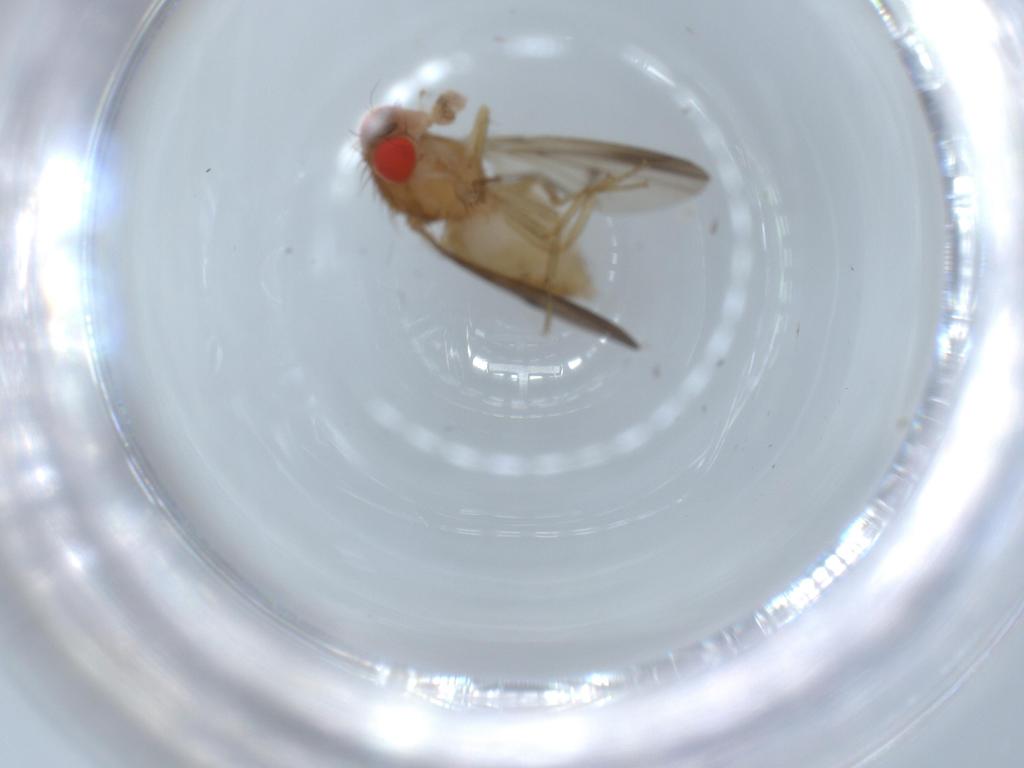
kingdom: Animalia
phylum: Arthropoda
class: Insecta
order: Diptera
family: Drosophilidae
